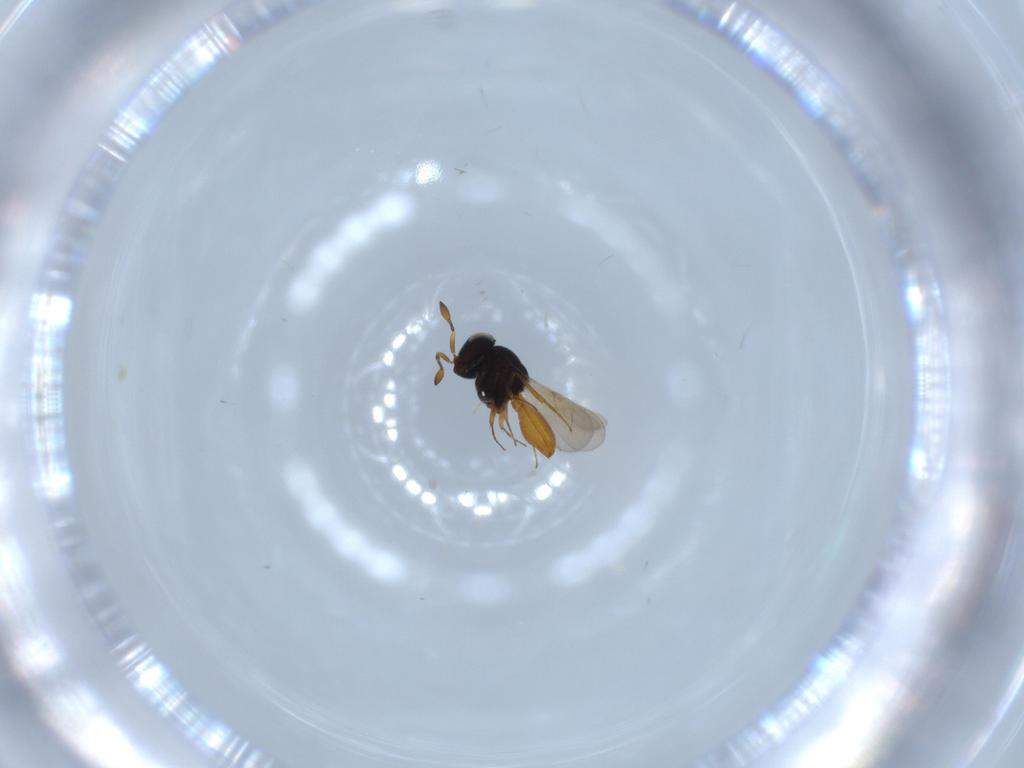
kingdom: Animalia
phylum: Arthropoda
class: Insecta
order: Hymenoptera
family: Scelionidae
